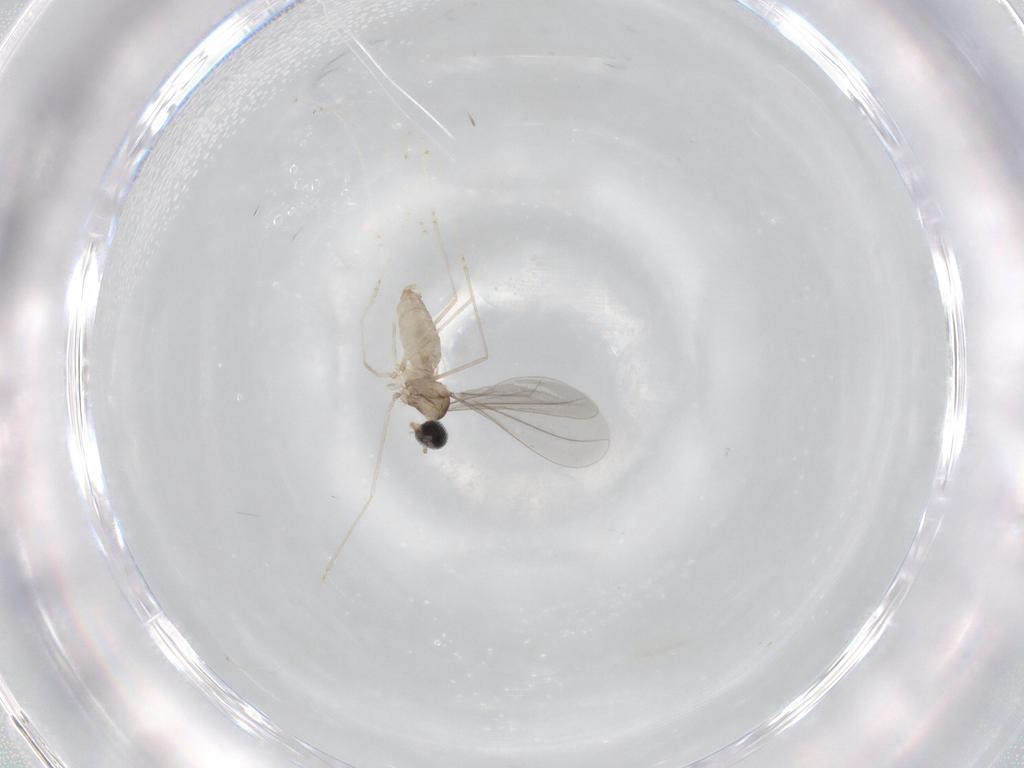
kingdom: Animalia
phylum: Arthropoda
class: Insecta
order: Diptera
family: Cecidomyiidae
